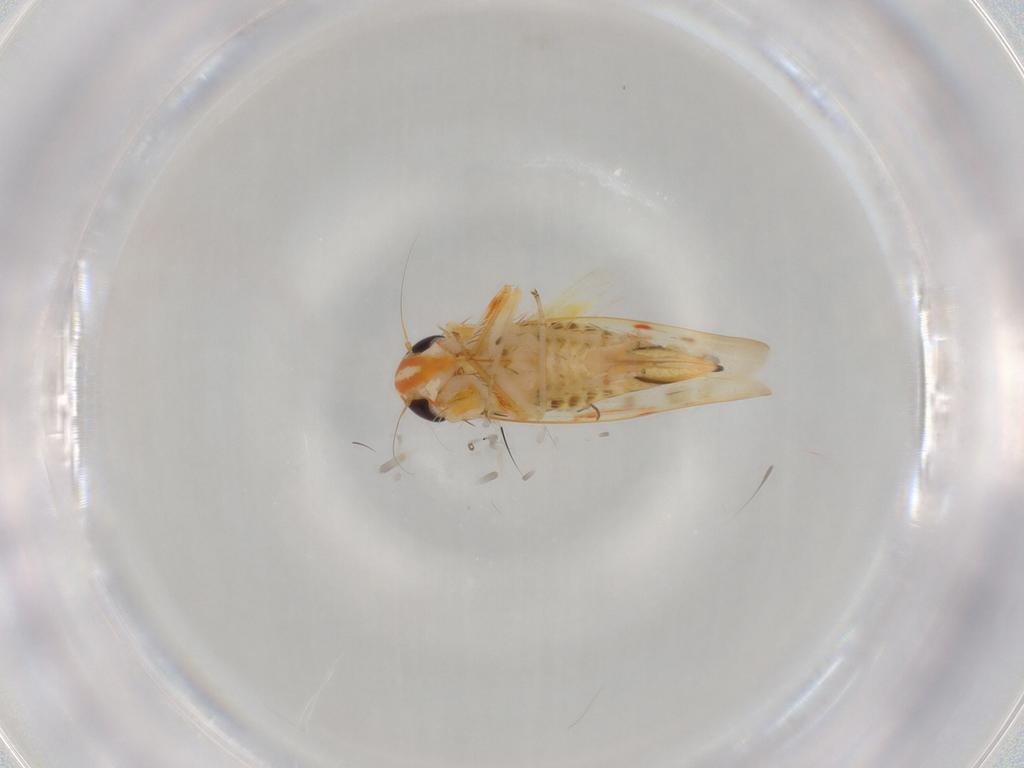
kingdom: Animalia
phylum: Arthropoda
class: Insecta
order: Hemiptera
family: Cicadellidae
